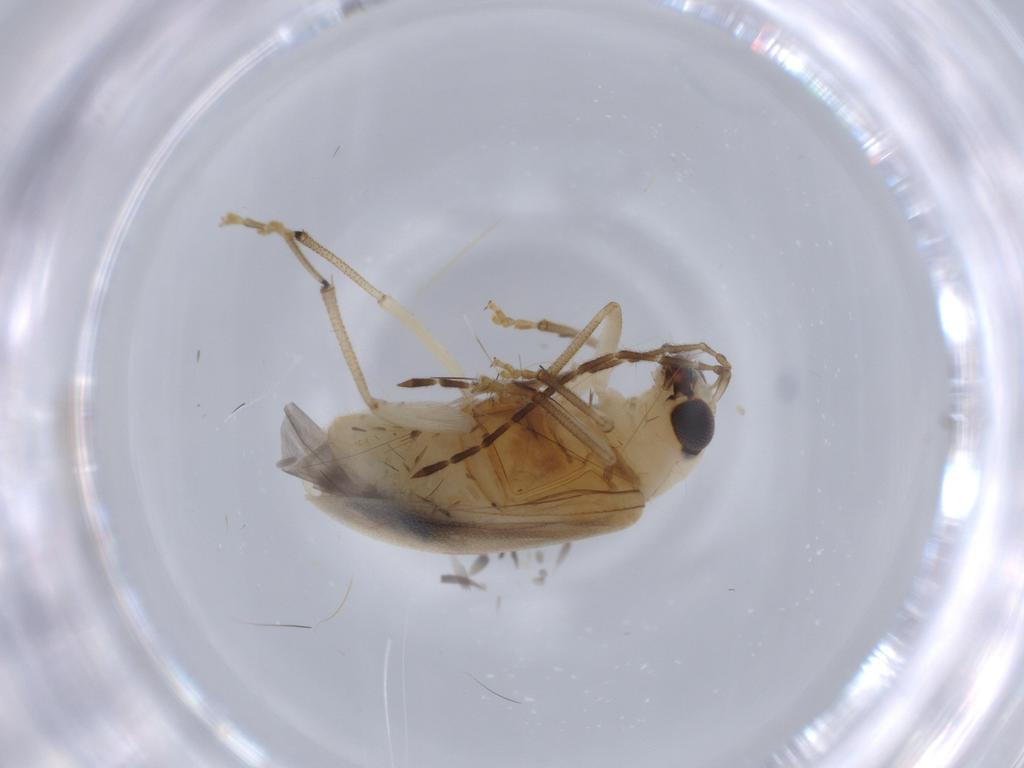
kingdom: Animalia
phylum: Arthropoda
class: Insecta
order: Coleoptera
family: Chrysomelidae
